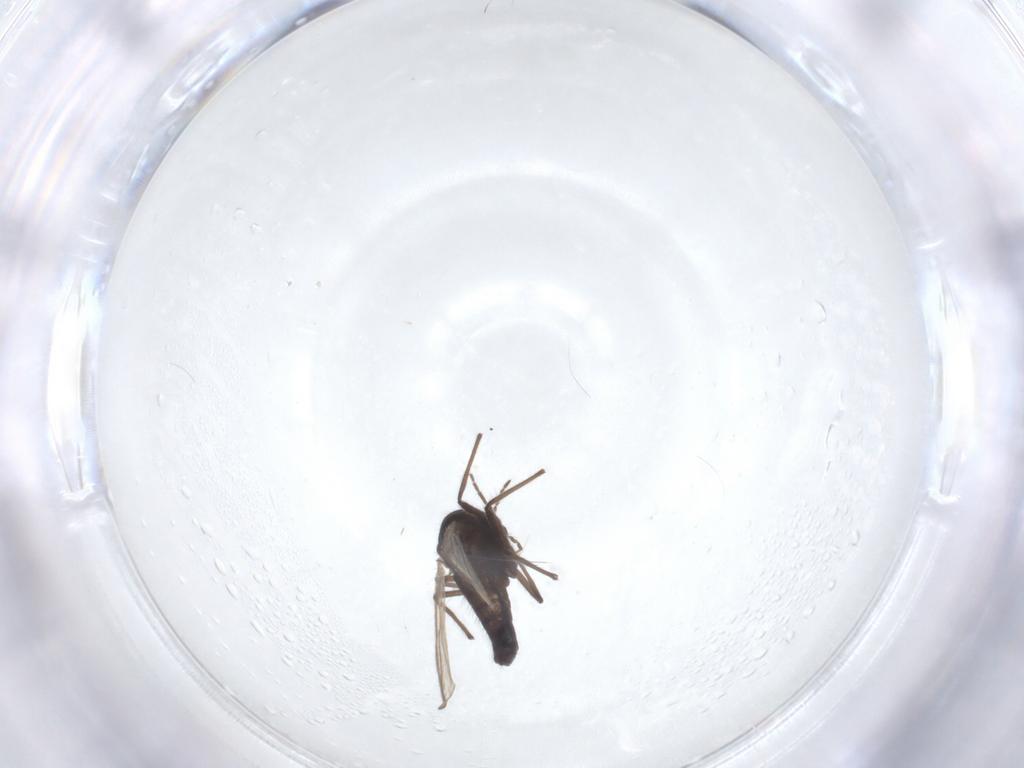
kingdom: Animalia
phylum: Arthropoda
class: Insecta
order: Diptera
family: Chironomidae
